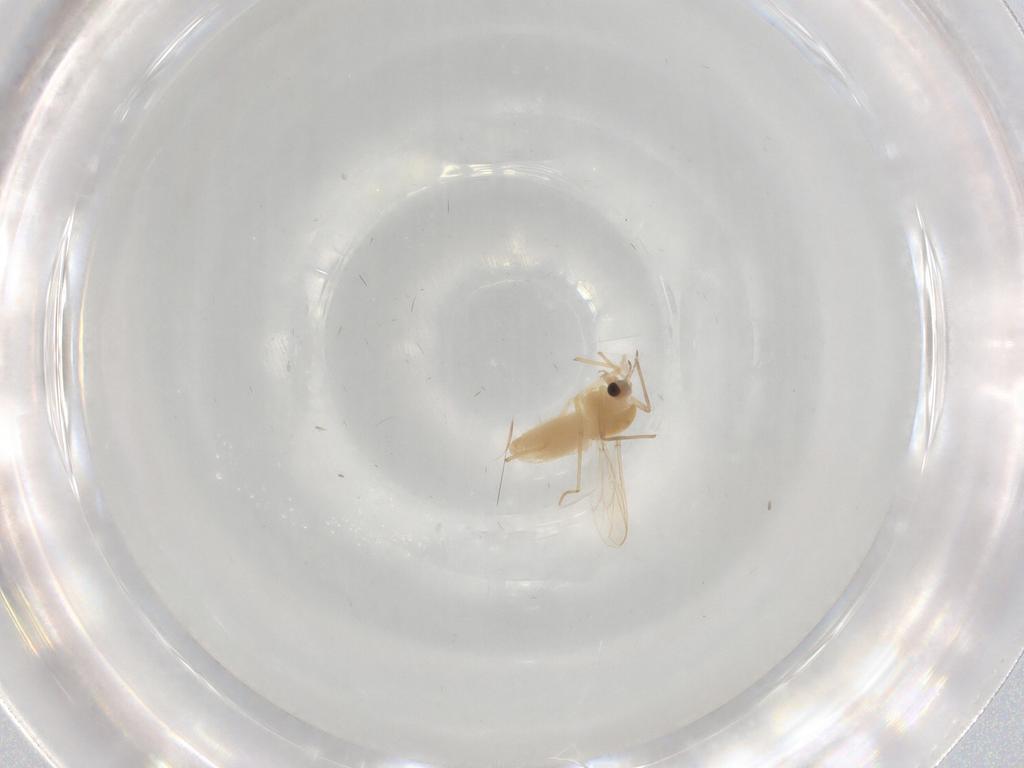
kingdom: Animalia
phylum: Arthropoda
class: Insecta
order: Diptera
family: Chironomidae
